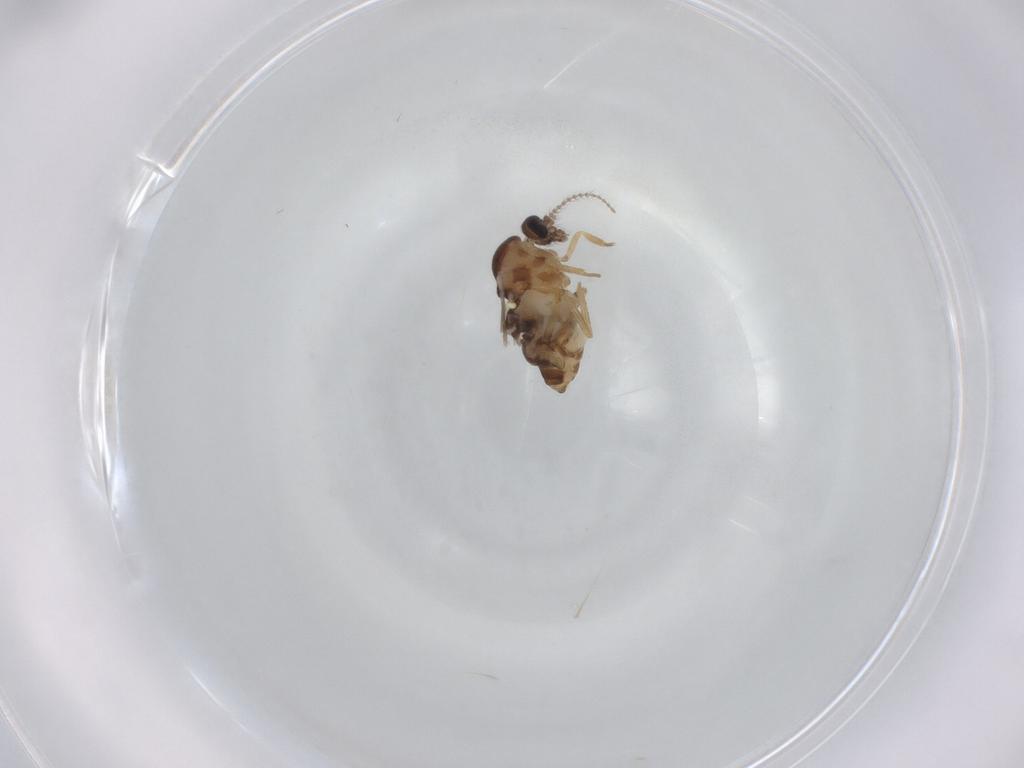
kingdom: Animalia
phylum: Arthropoda
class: Insecta
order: Diptera
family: Ceratopogonidae
